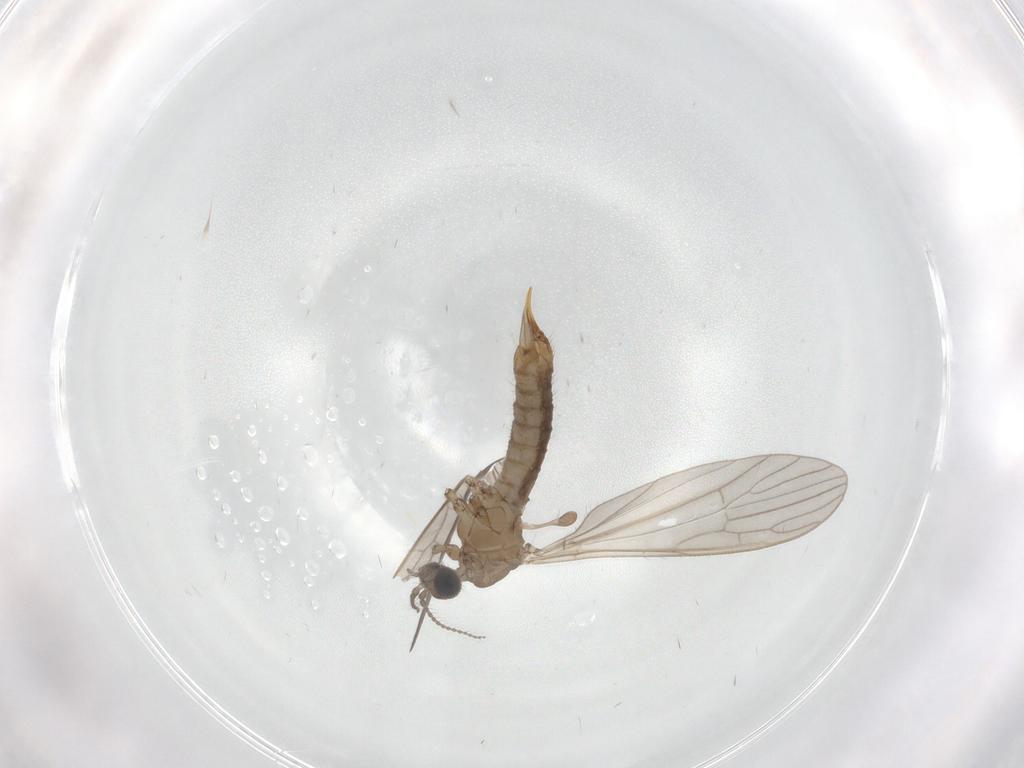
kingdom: Animalia
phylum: Arthropoda
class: Insecta
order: Diptera
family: Limoniidae
